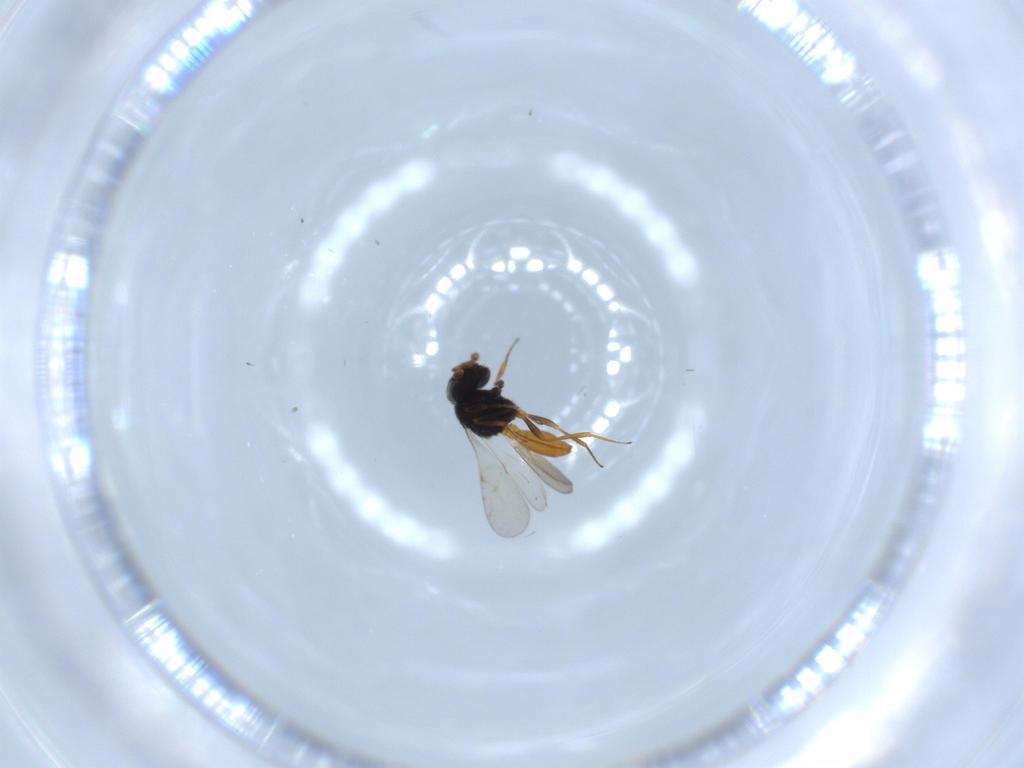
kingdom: Animalia
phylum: Arthropoda
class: Insecta
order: Hymenoptera
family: Scelionidae
